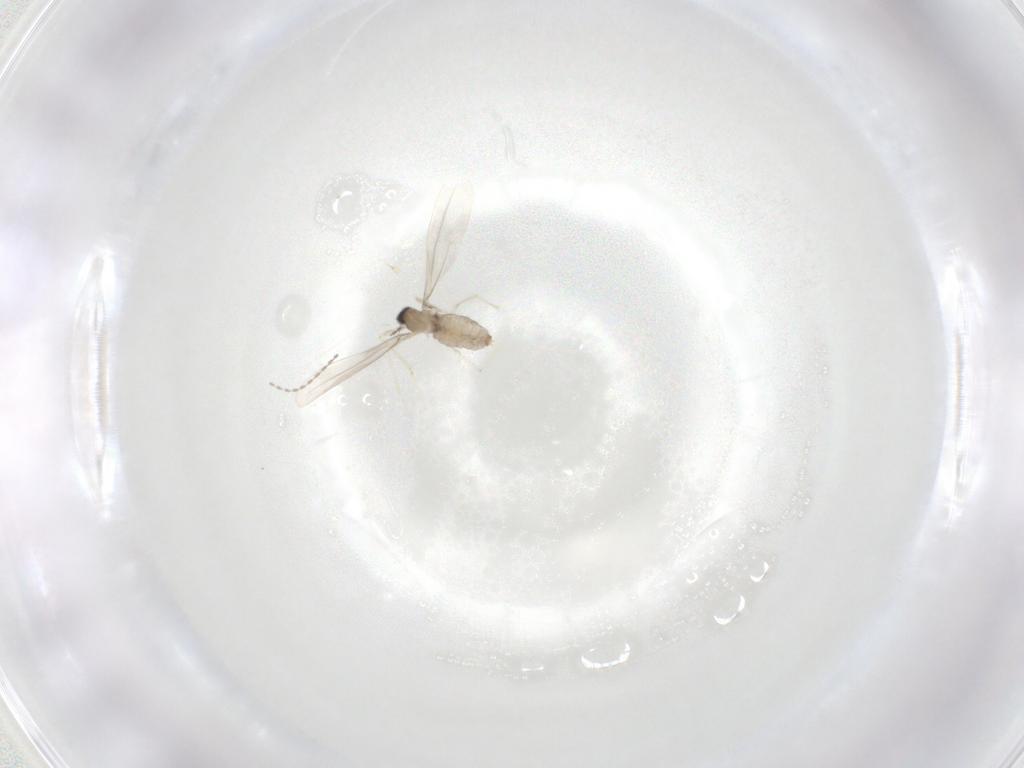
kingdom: Animalia
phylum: Arthropoda
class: Insecta
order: Diptera
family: Cecidomyiidae
